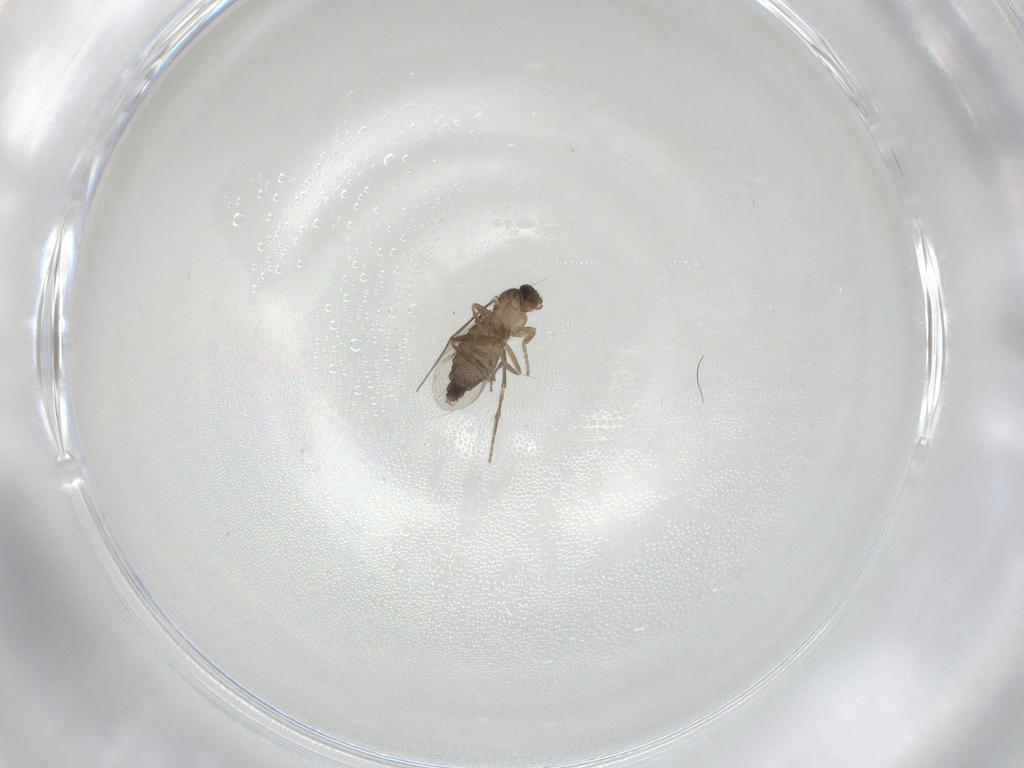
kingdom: Animalia
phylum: Arthropoda
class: Insecta
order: Diptera
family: Phoridae
